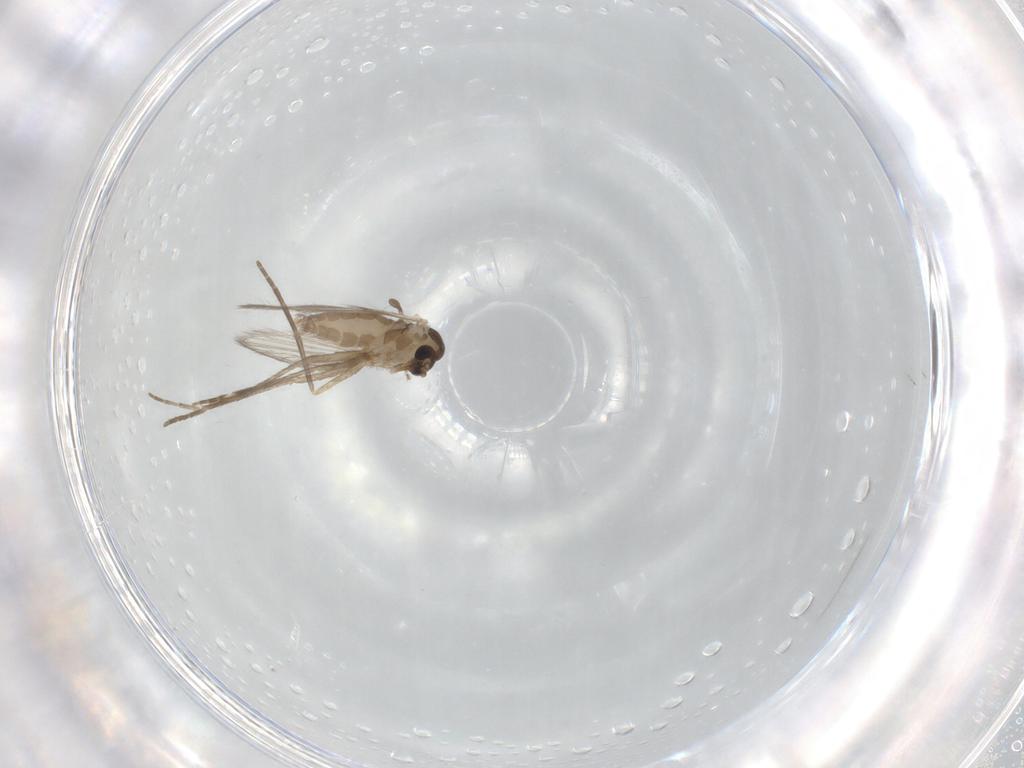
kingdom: Animalia
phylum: Arthropoda
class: Insecta
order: Diptera
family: Psychodidae
